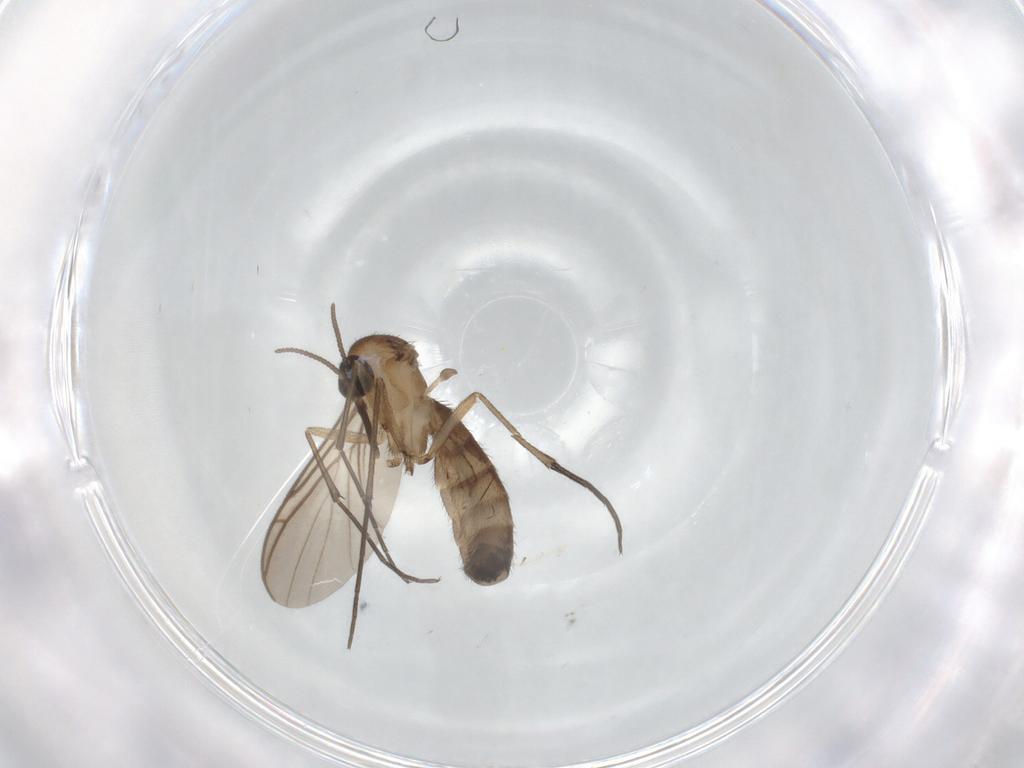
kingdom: Animalia
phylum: Arthropoda
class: Insecta
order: Diptera
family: Keroplatidae
